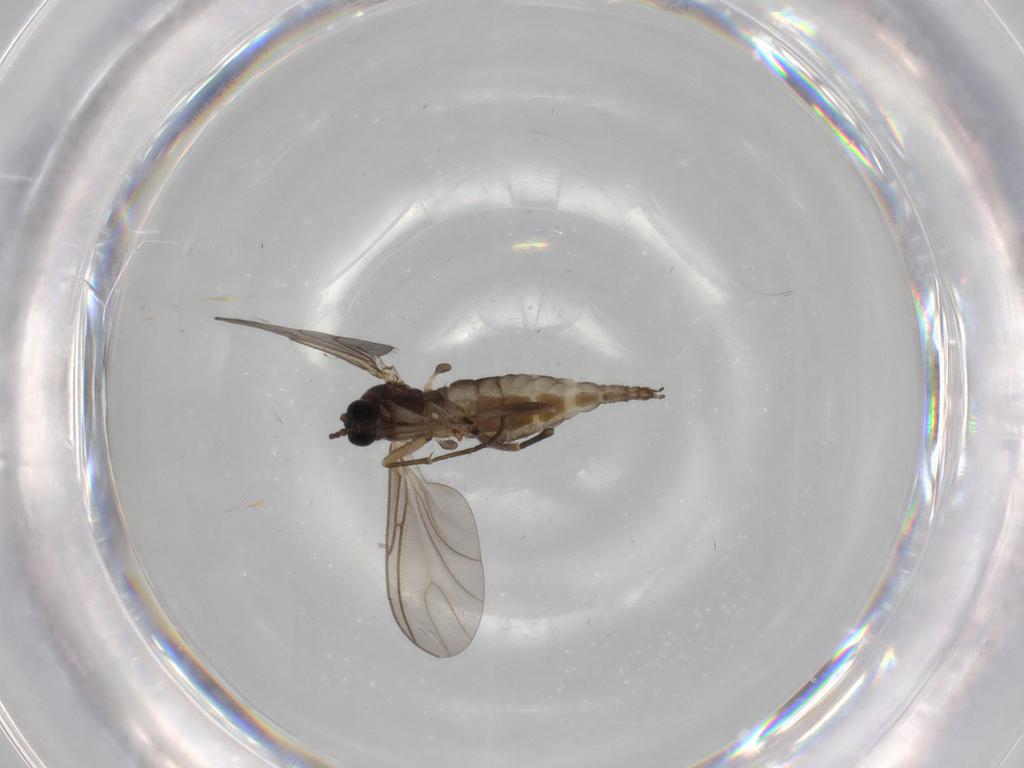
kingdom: Animalia
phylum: Arthropoda
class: Insecta
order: Diptera
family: Sciaridae
